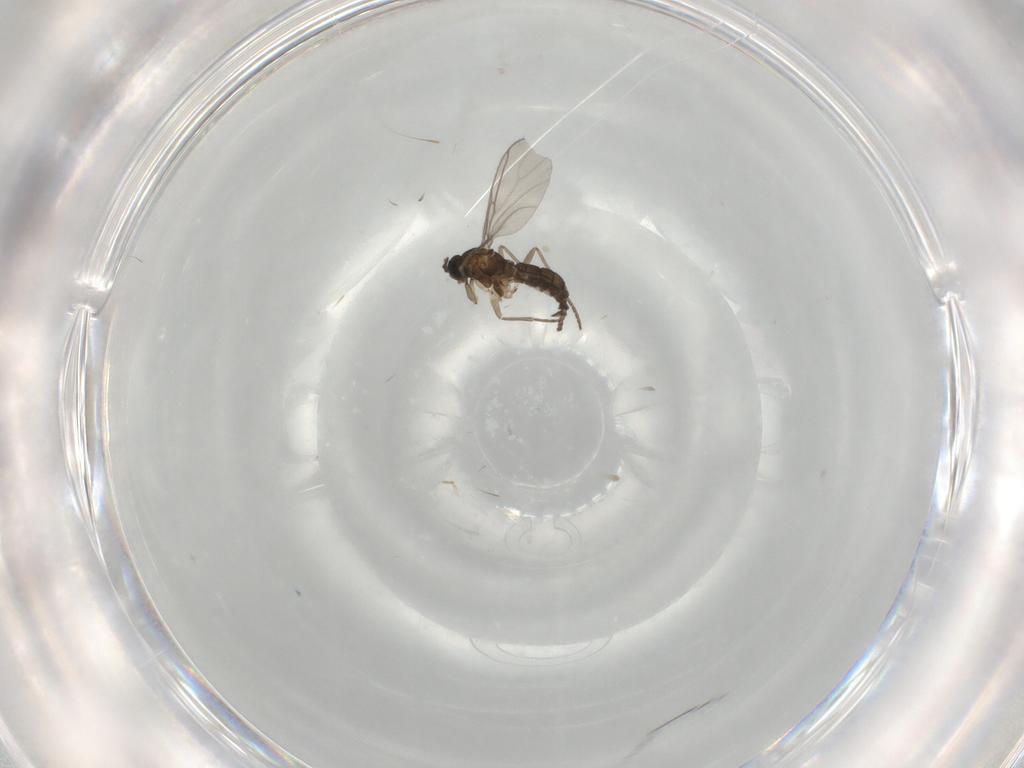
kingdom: Animalia
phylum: Arthropoda
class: Insecta
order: Diptera
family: Sciaridae
